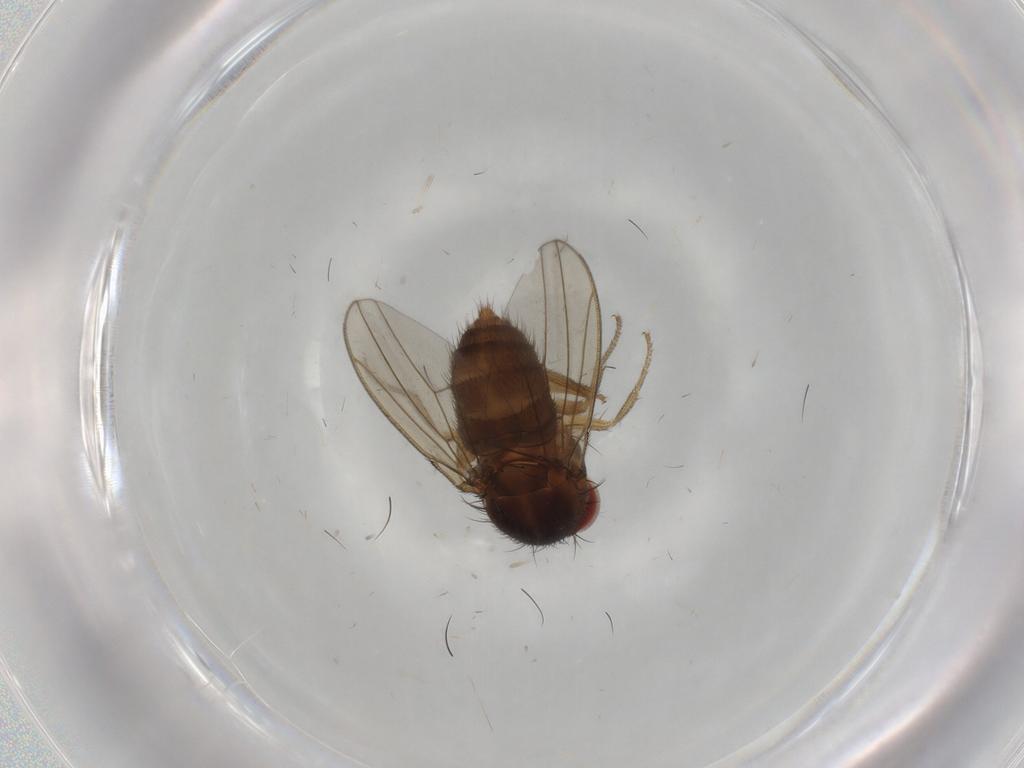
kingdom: Animalia
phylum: Arthropoda
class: Insecta
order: Diptera
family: Drosophilidae
